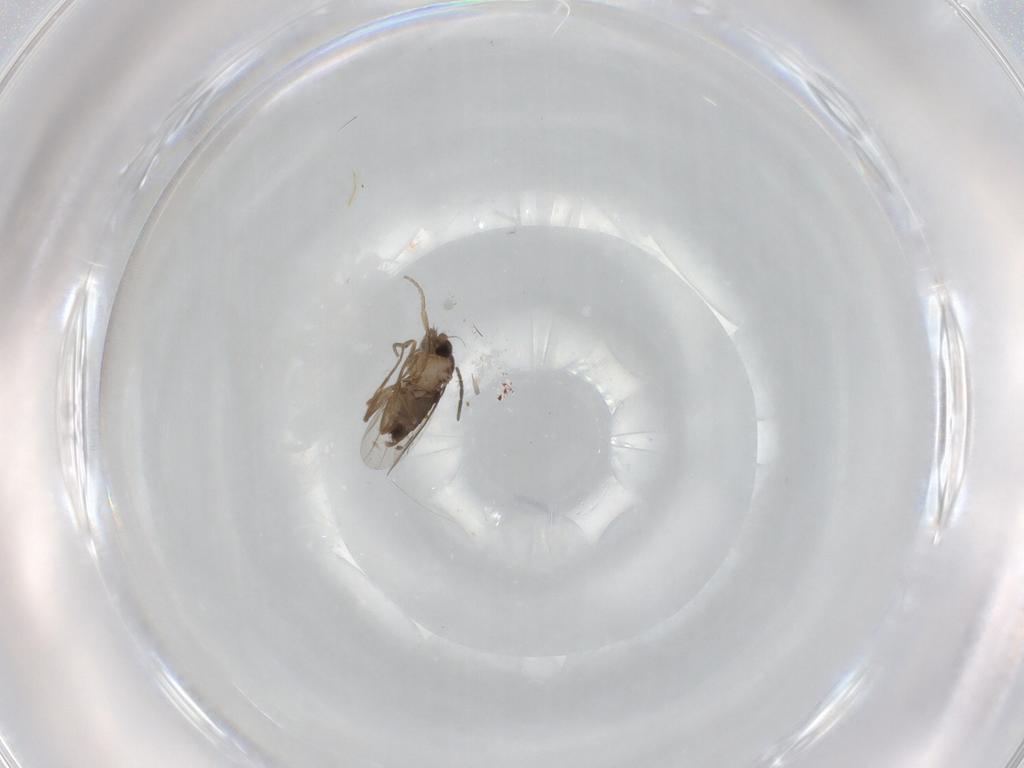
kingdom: Animalia
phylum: Arthropoda
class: Insecta
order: Diptera
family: Phoridae
